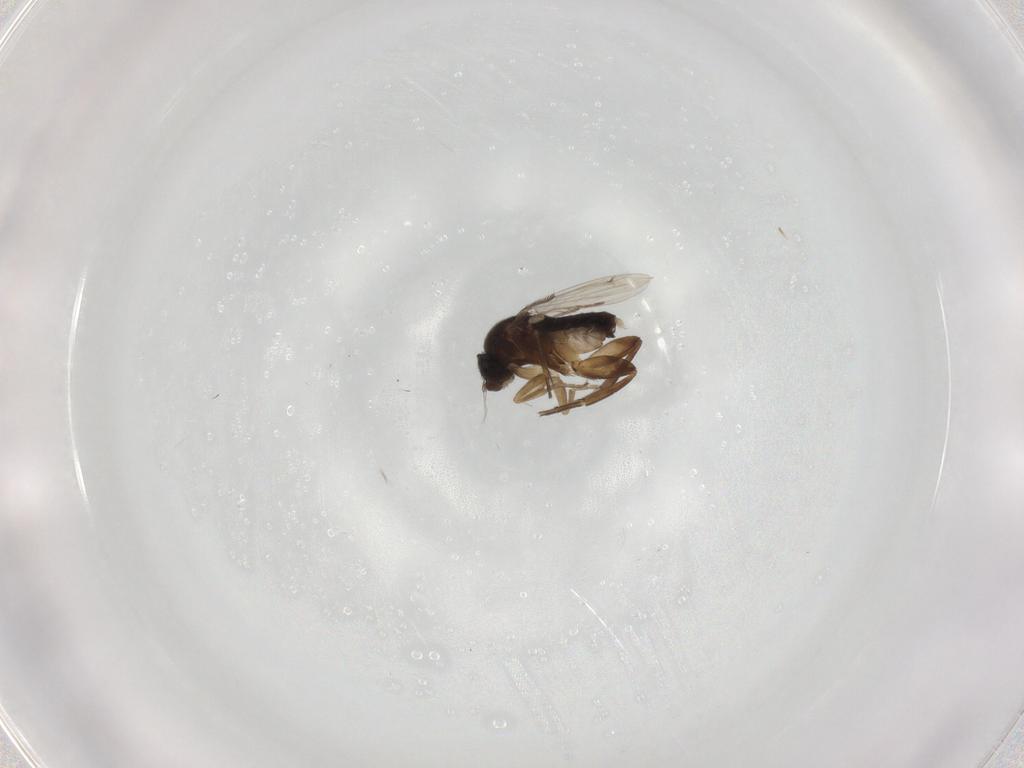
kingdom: Animalia
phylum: Arthropoda
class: Insecta
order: Diptera
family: Phoridae
